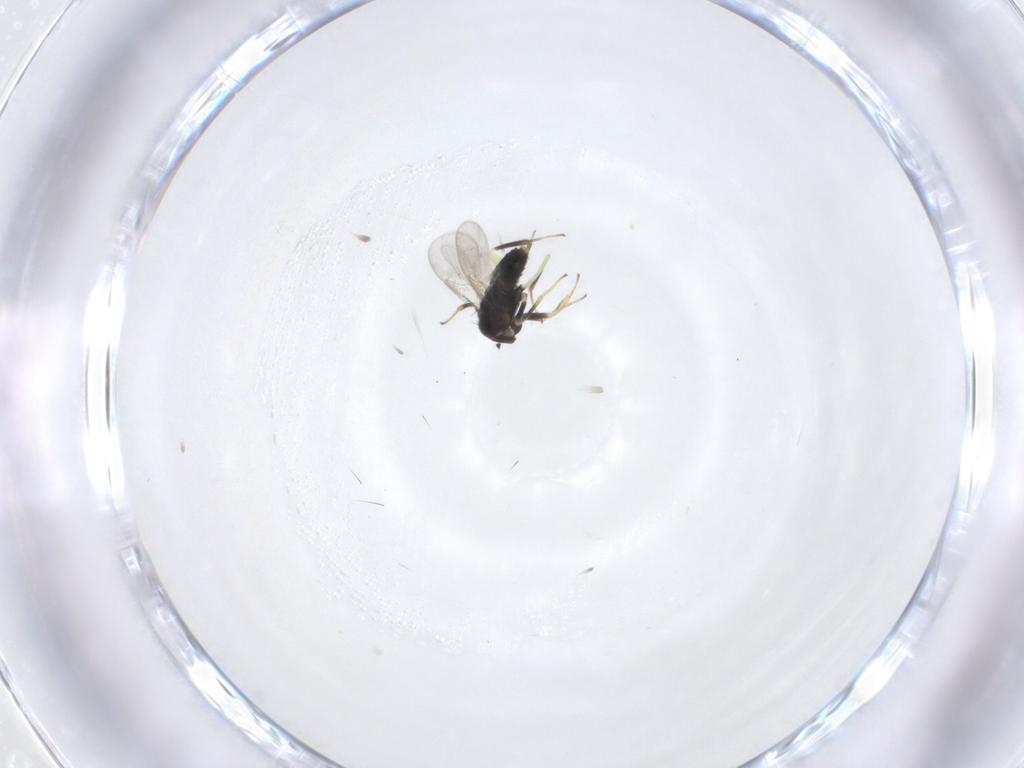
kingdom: Animalia
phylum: Arthropoda
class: Insecta
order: Hymenoptera
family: Aphelinidae
